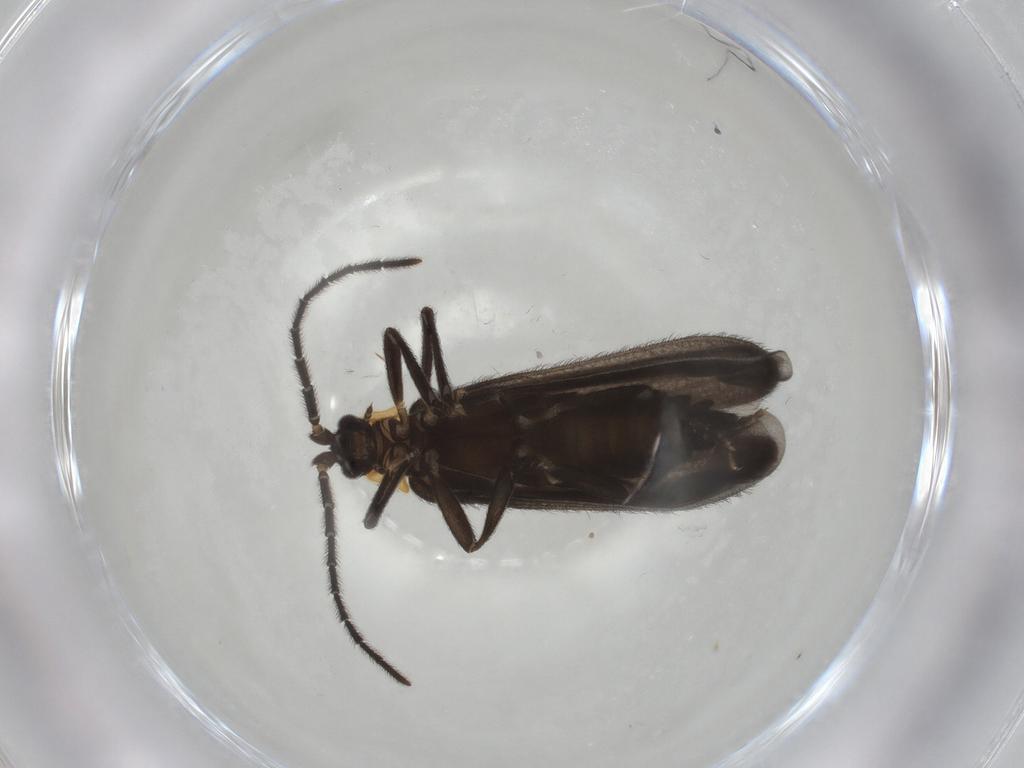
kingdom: Animalia
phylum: Arthropoda
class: Insecta
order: Coleoptera
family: Lycidae
